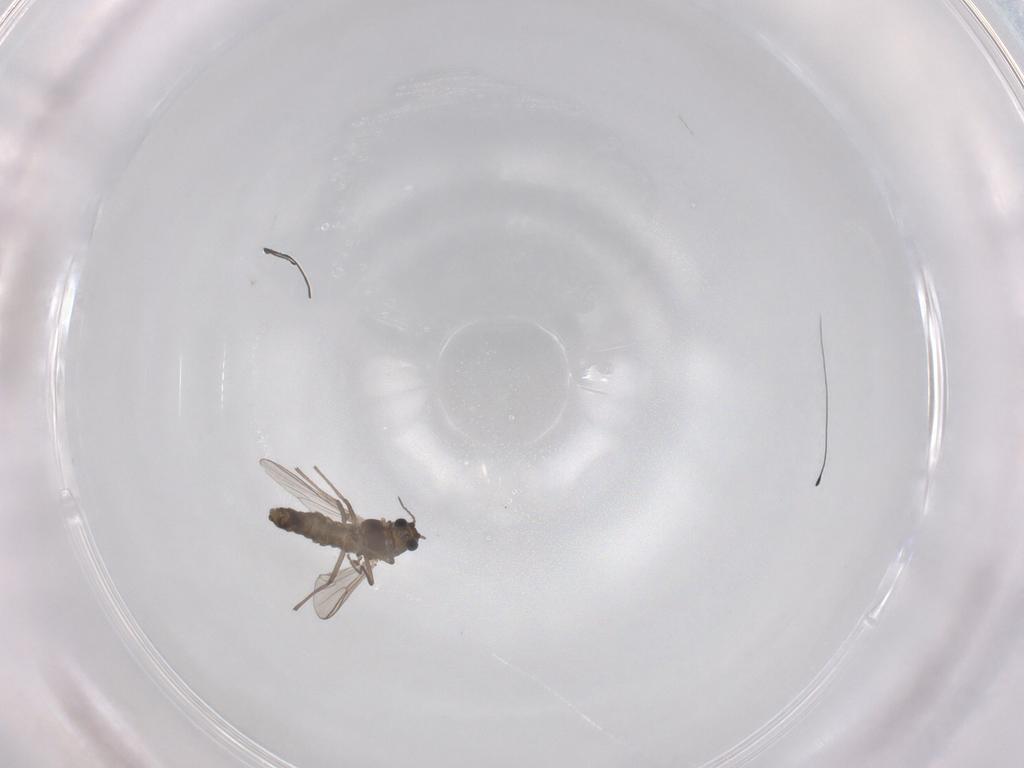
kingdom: Animalia
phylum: Arthropoda
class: Insecta
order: Diptera
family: Chironomidae
